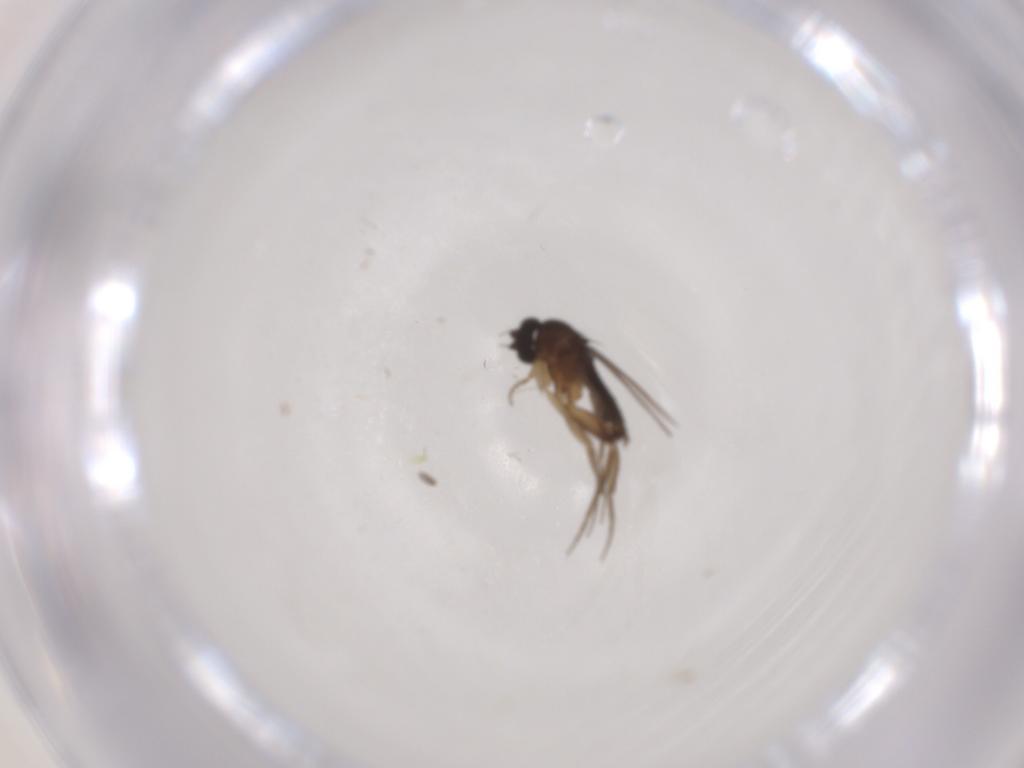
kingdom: Animalia
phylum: Arthropoda
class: Insecta
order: Diptera
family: Phoridae
